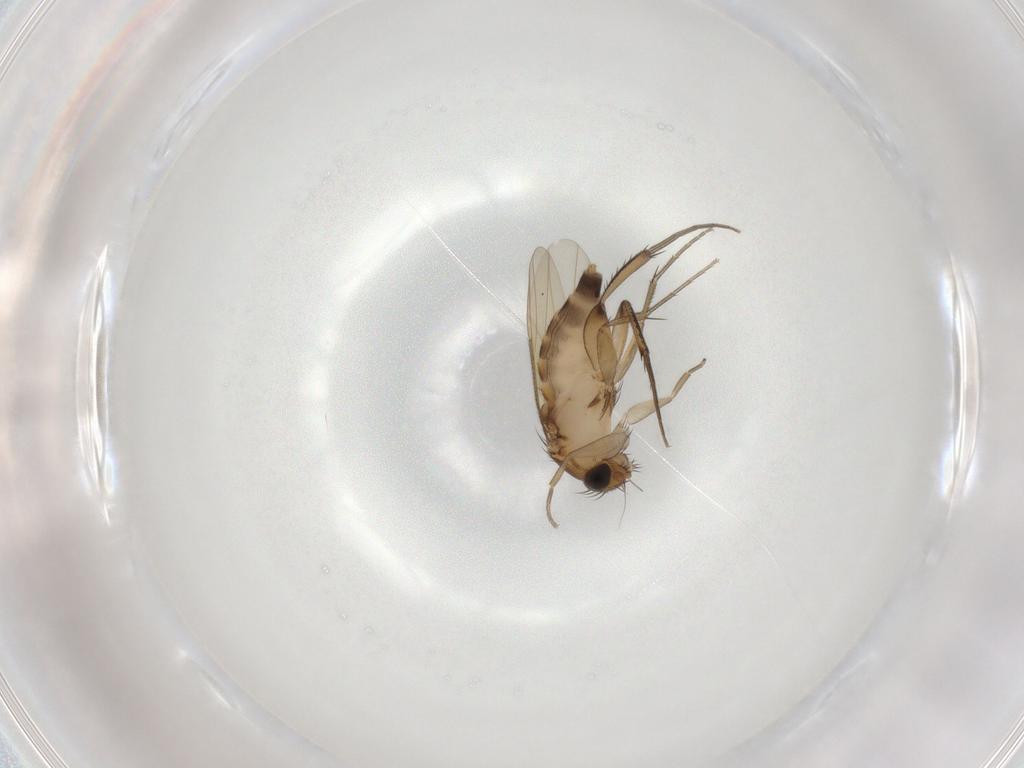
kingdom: Animalia
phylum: Arthropoda
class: Insecta
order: Diptera
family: Phoridae
